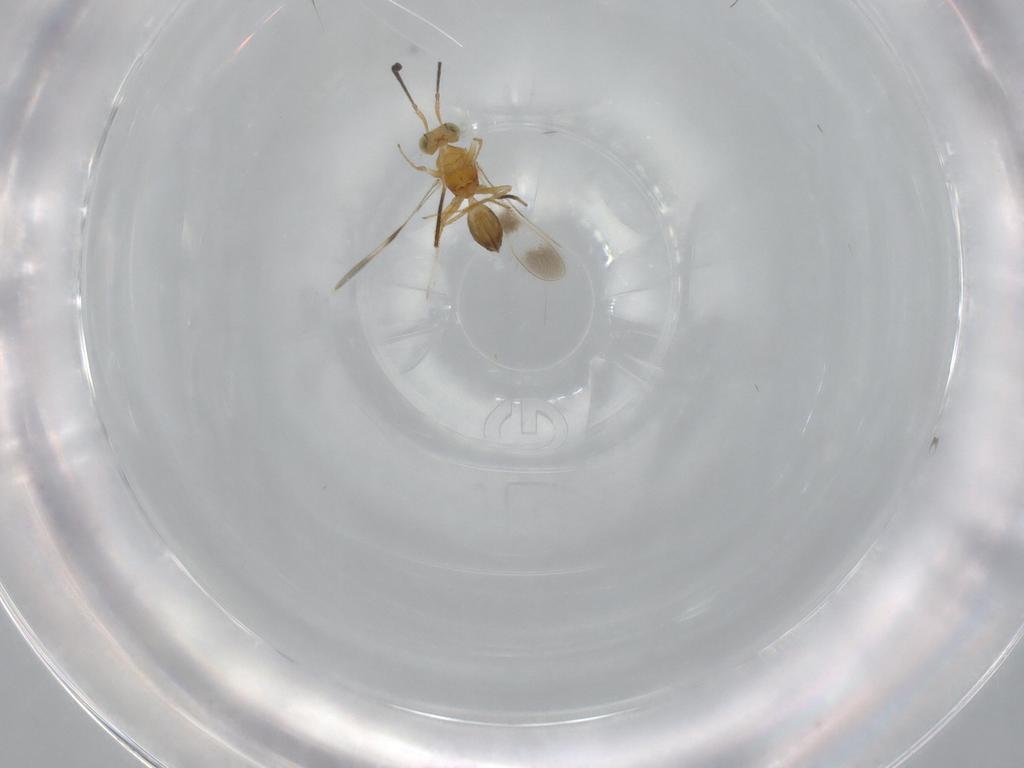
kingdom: Animalia
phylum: Arthropoda
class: Insecta
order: Hymenoptera
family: Mymaridae
